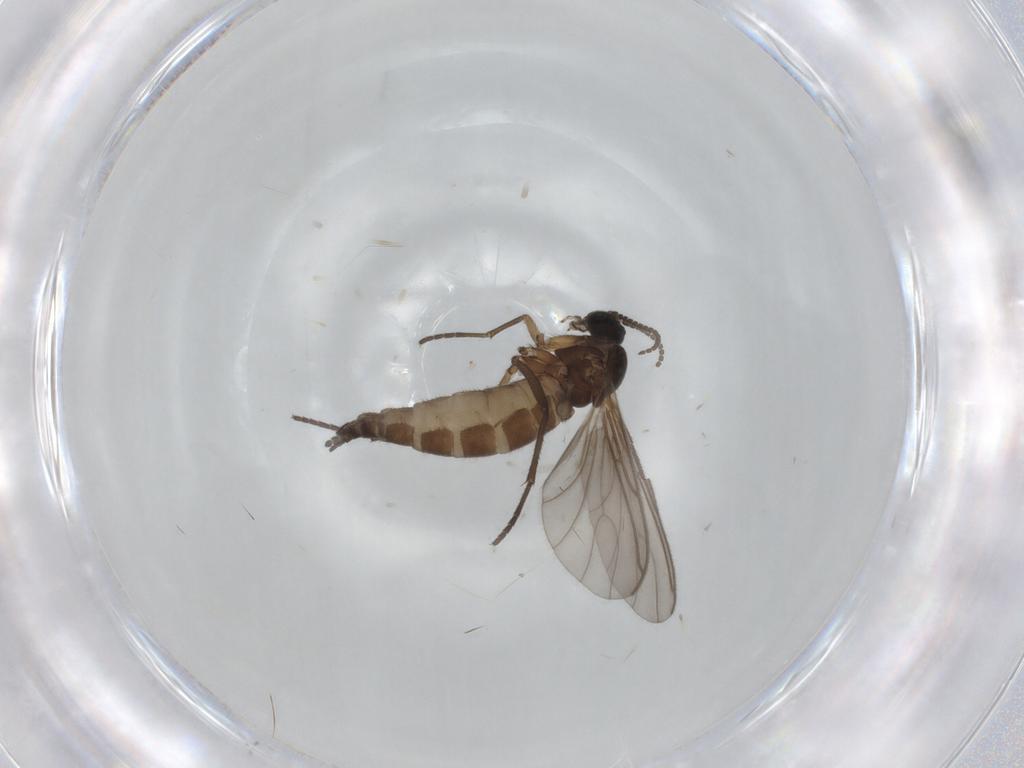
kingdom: Animalia
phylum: Arthropoda
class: Insecta
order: Diptera
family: Sciaridae
